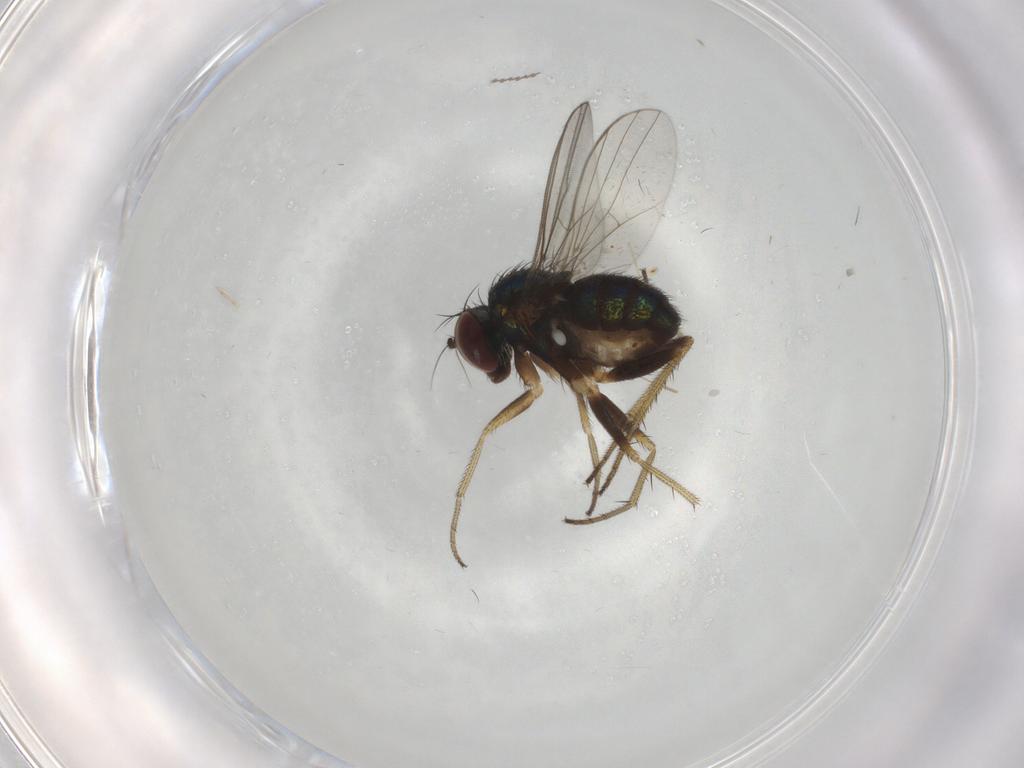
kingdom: Animalia
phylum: Arthropoda
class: Insecta
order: Diptera
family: Dolichopodidae
